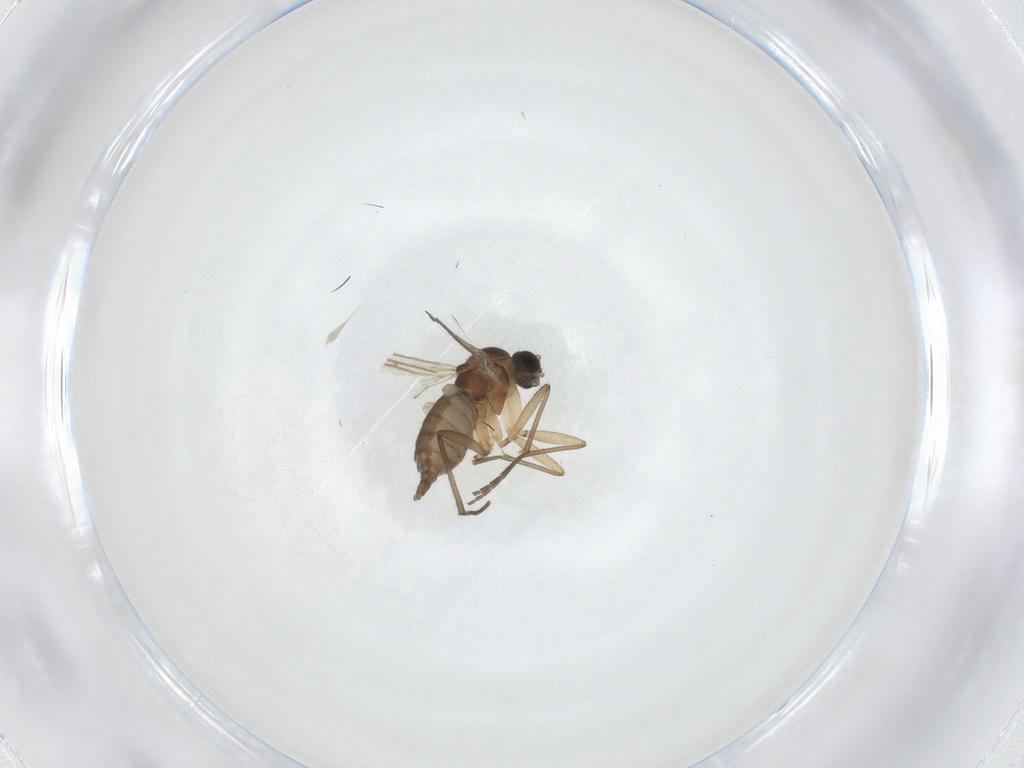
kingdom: Animalia
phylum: Arthropoda
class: Insecta
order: Diptera
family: Sciaridae
